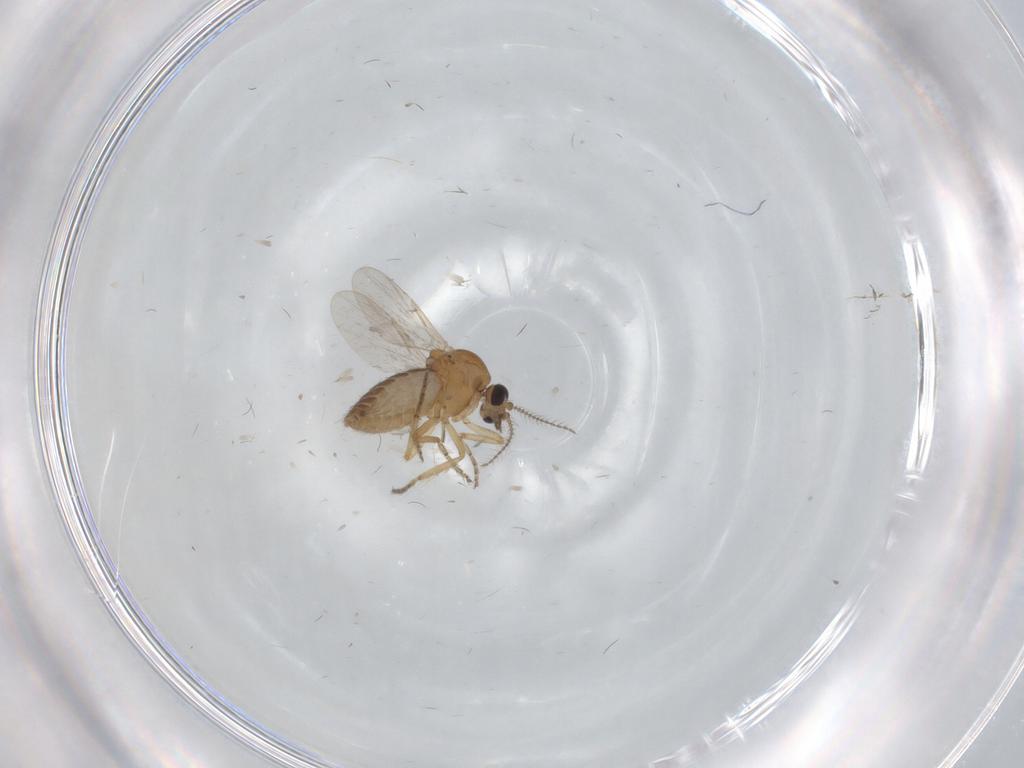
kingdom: Animalia
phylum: Arthropoda
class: Insecta
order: Diptera
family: Ceratopogonidae
